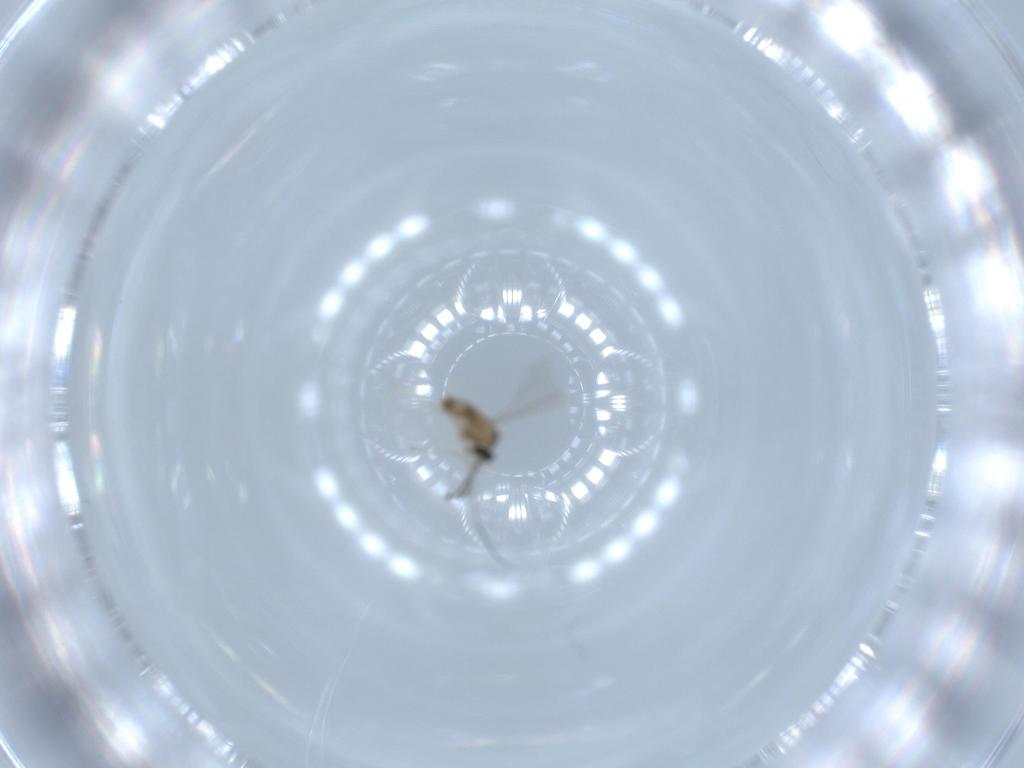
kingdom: Animalia
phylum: Arthropoda
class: Insecta
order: Diptera
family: Cecidomyiidae
